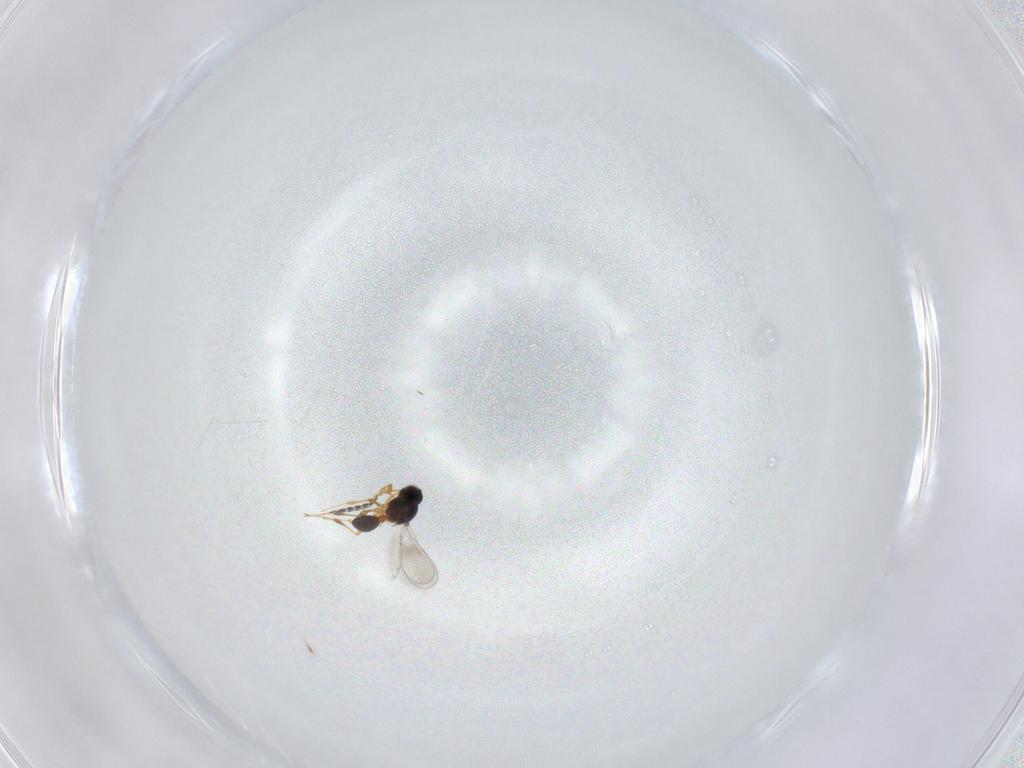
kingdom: Animalia
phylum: Arthropoda
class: Insecta
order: Hymenoptera
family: Platygastridae
